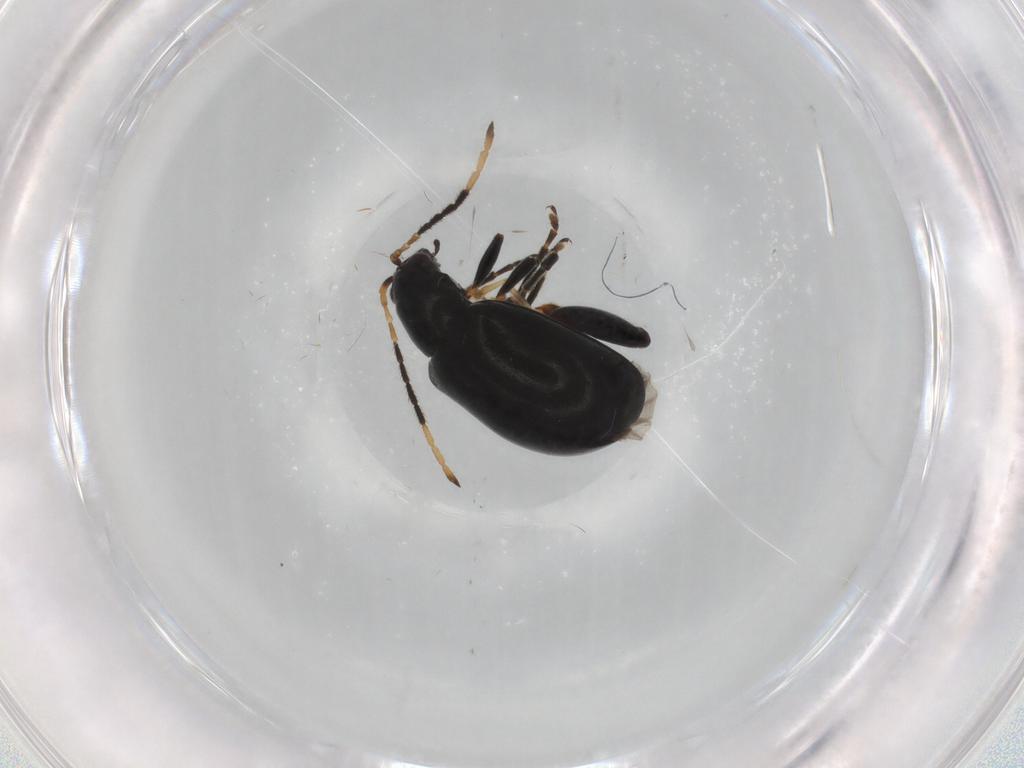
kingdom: Animalia
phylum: Arthropoda
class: Insecta
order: Coleoptera
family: Chrysomelidae
